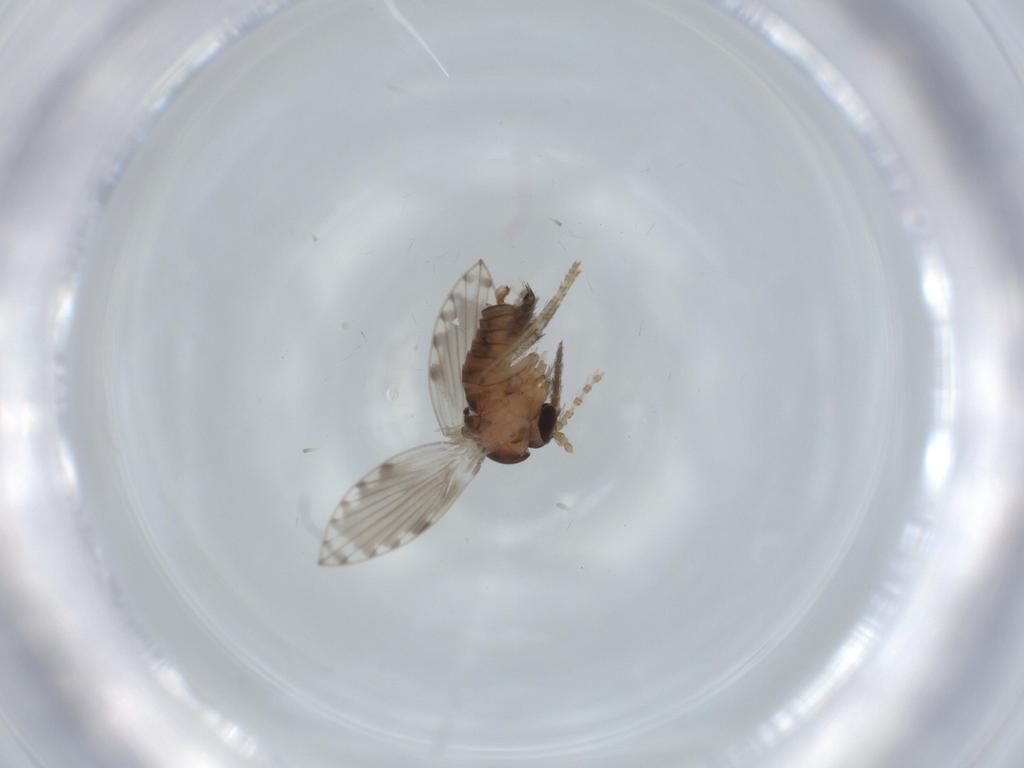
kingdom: Animalia
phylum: Arthropoda
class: Insecta
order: Diptera
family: Psychodidae
